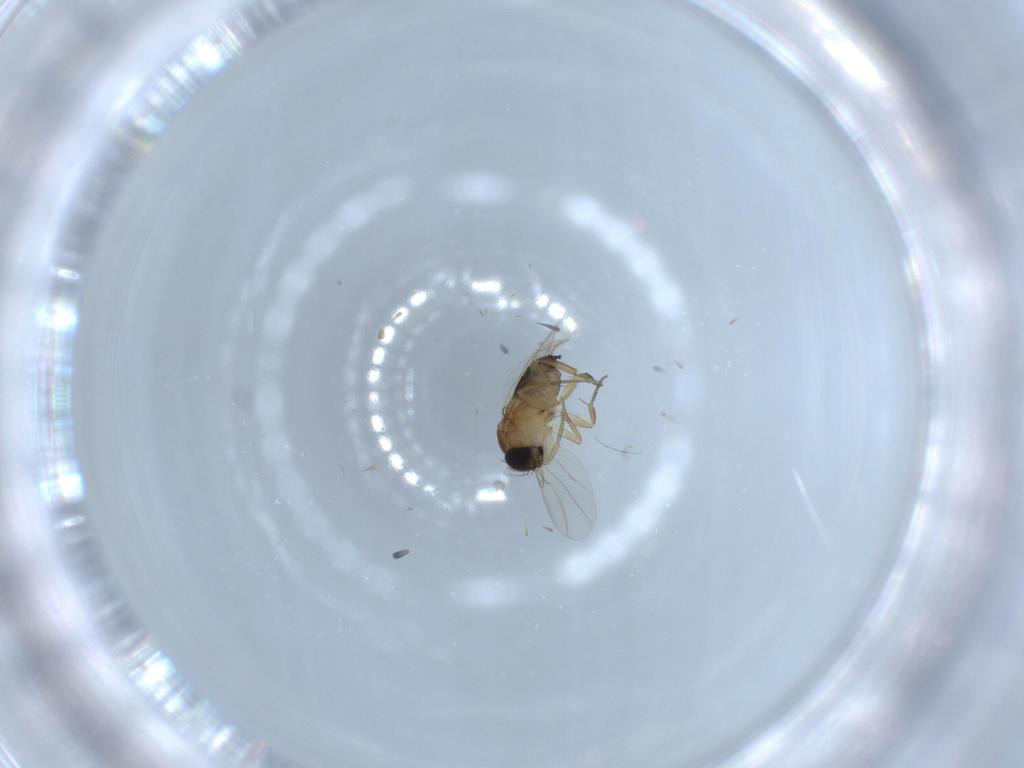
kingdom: Animalia
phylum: Arthropoda
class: Insecta
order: Diptera
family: Phoridae
